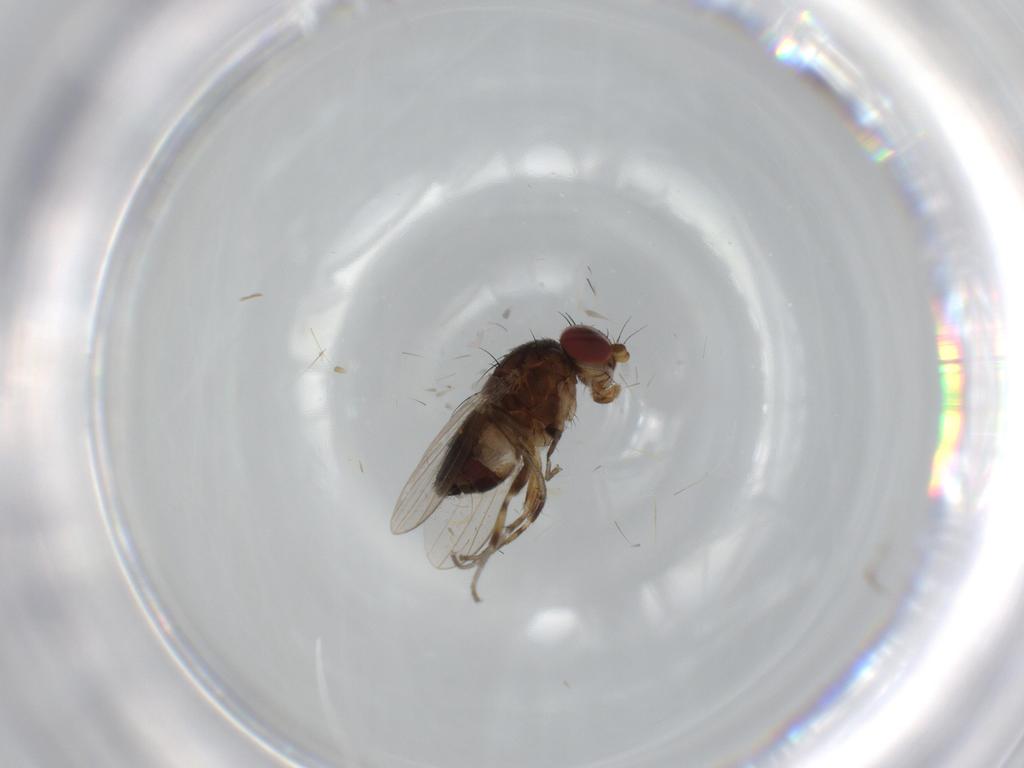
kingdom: Animalia
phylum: Arthropoda
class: Insecta
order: Diptera
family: Heleomyzidae
